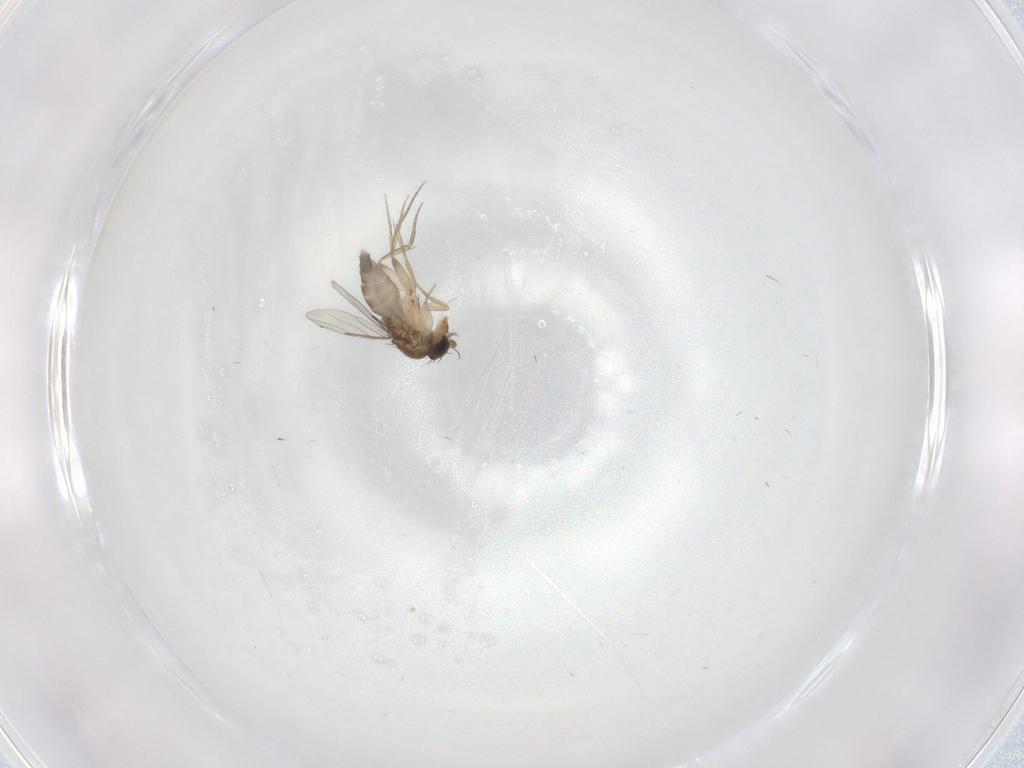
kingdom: Animalia
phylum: Arthropoda
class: Insecta
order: Diptera
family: Phoridae
